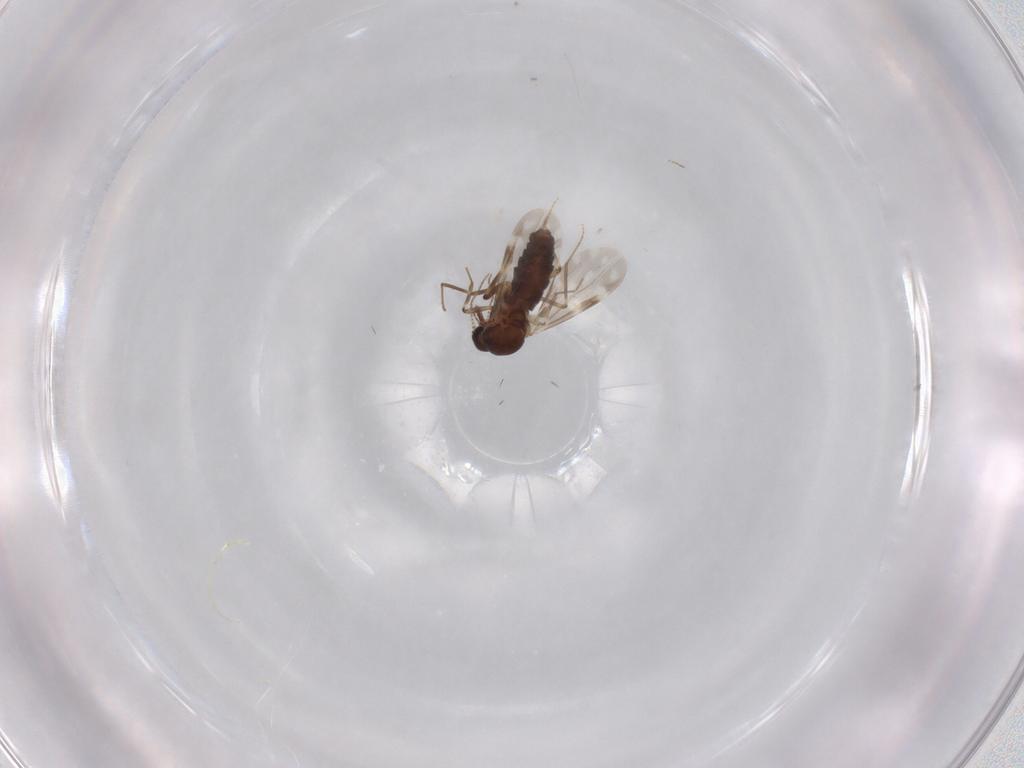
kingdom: Animalia
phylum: Arthropoda
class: Insecta
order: Diptera
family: Ceratopogonidae
